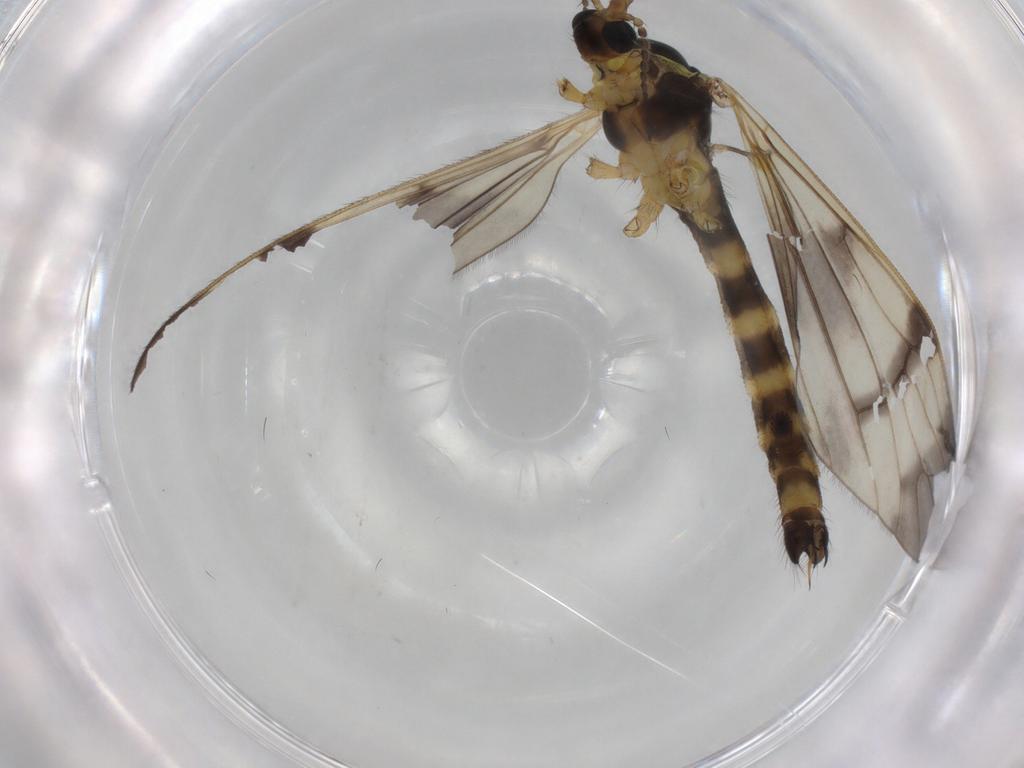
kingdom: Animalia
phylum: Arthropoda
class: Insecta
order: Diptera
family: Limoniidae
